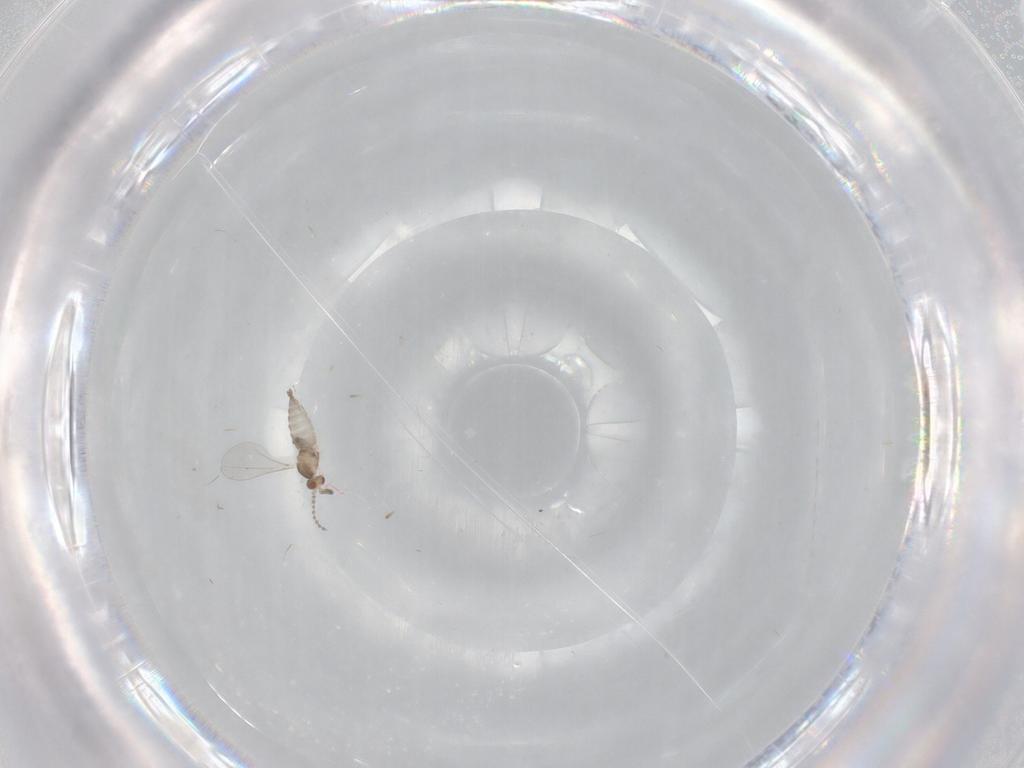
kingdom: Animalia
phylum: Arthropoda
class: Insecta
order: Diptera
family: Cecidomyiidae
